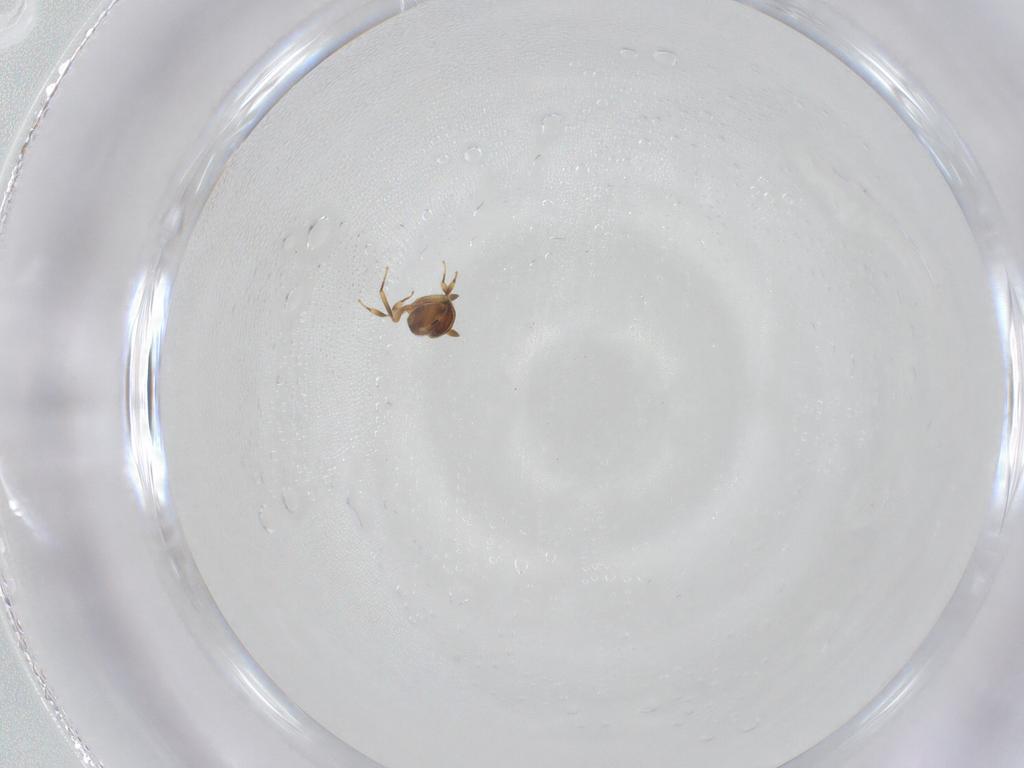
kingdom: Animalia
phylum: Arthropoda
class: Insecta
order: Hymenoptera
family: Scelionidae
